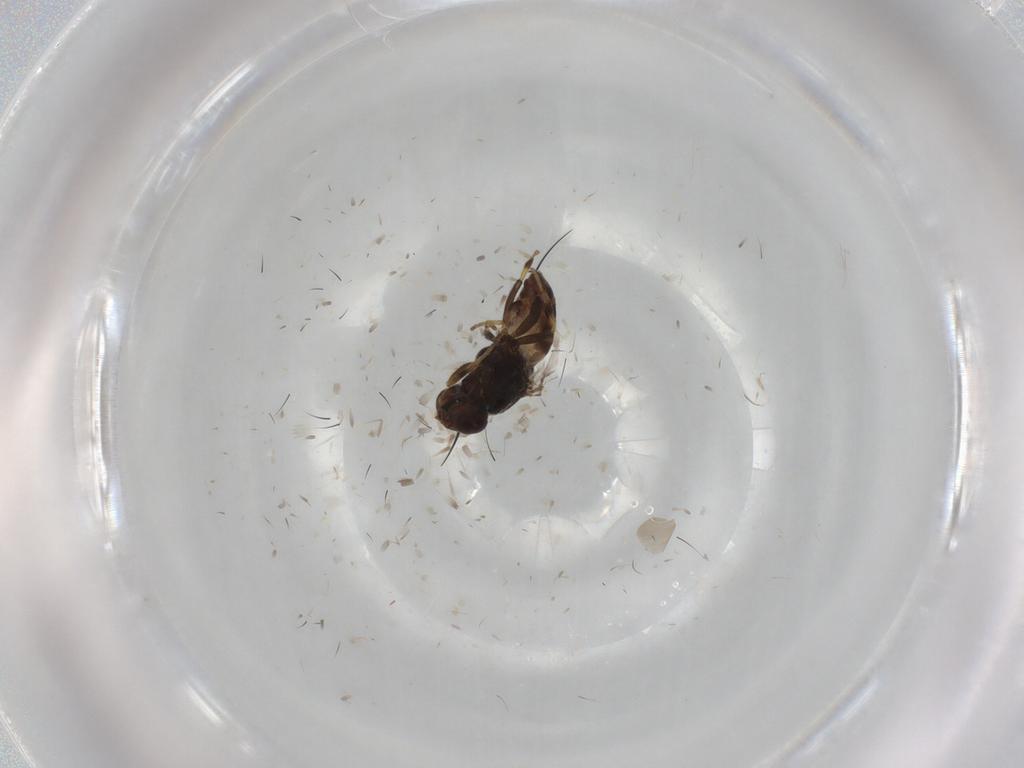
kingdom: Animalia
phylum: Arthropoda
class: Insecta
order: Diptera
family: Chloropidae
